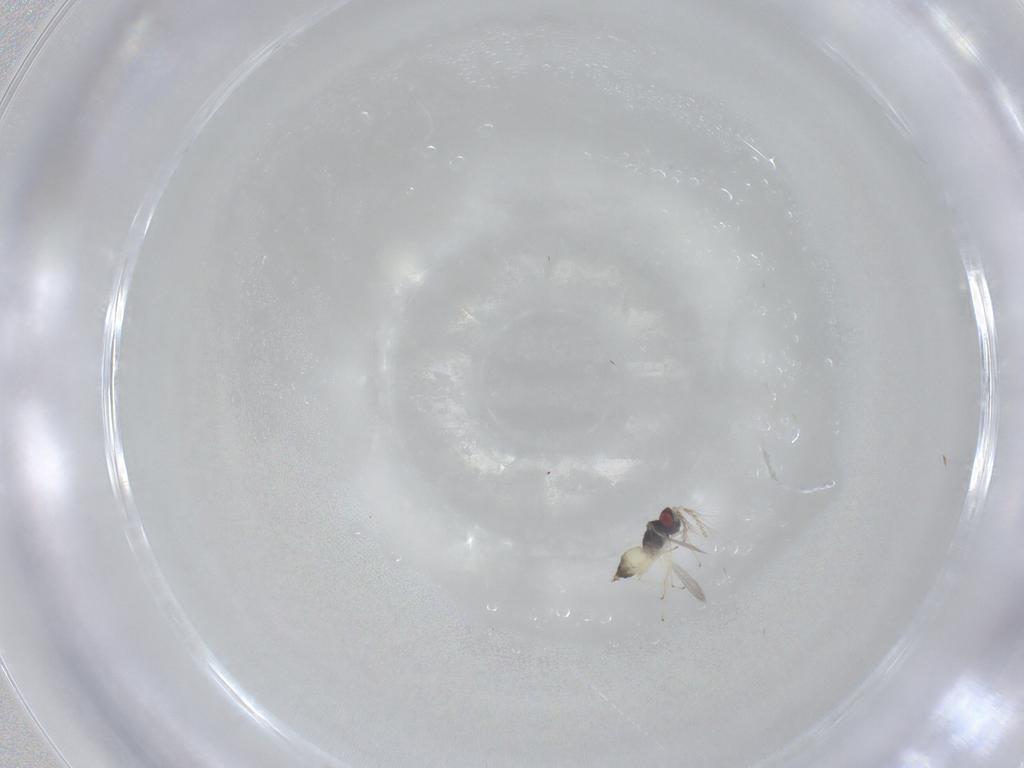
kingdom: Animalia
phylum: Arthropoda
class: Insecta
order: Hymenoptera
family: Eulophidae
